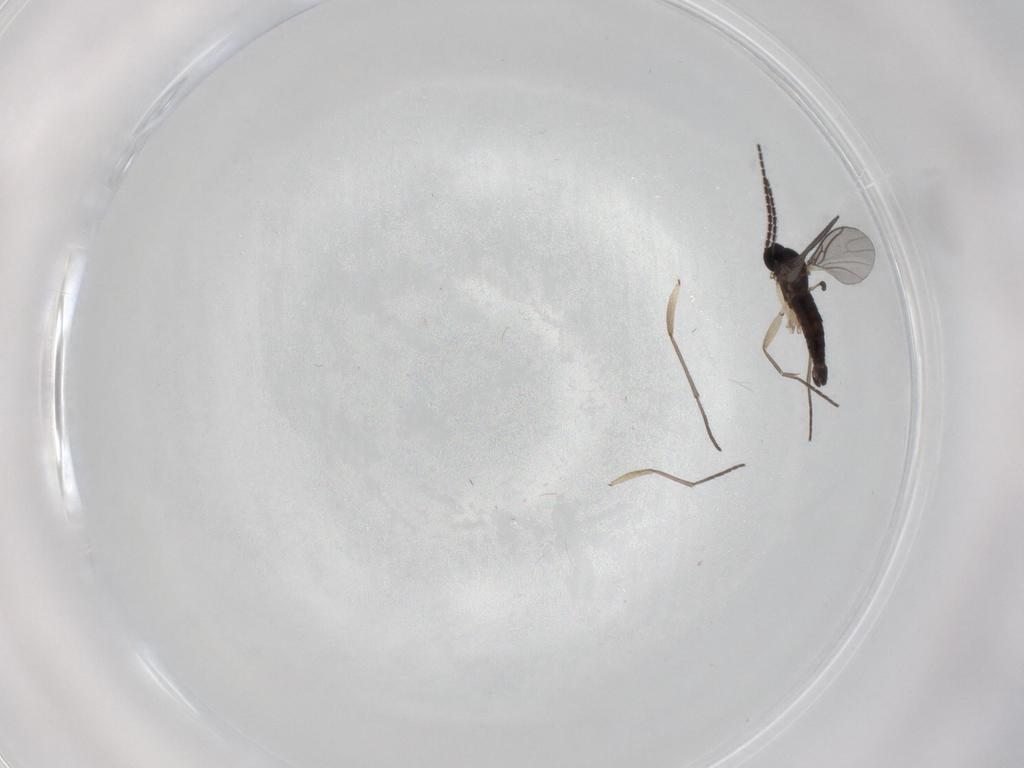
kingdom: Animalia
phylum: Arthropoda
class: Insecta
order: Diptera
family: Sciaridae
